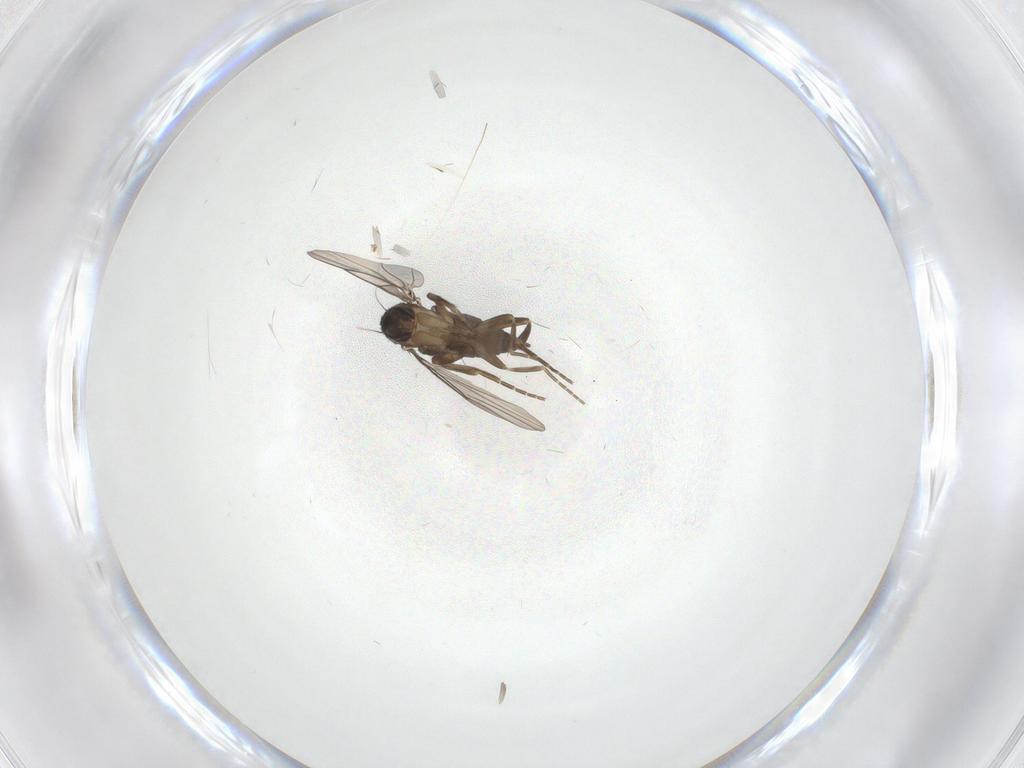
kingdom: Animalia
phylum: Arthropoda
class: Insecta
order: Diptera
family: Phoridae
